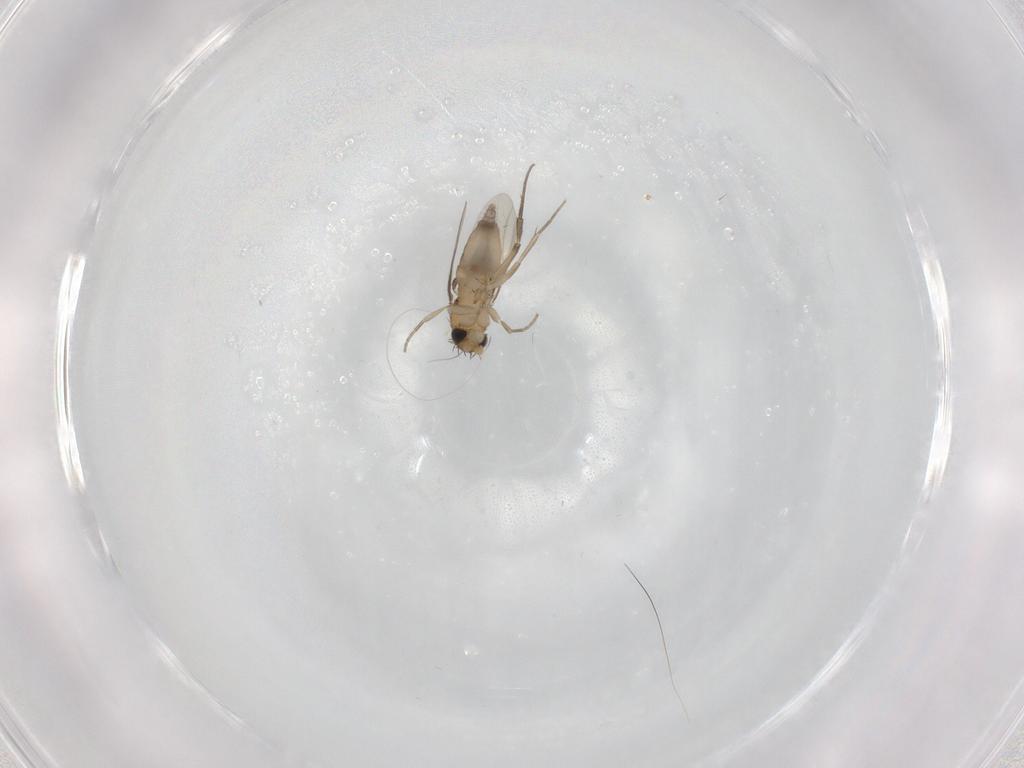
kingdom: Animalia
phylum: Arthropoda
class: Insecta
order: Diptera
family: Phoridae
